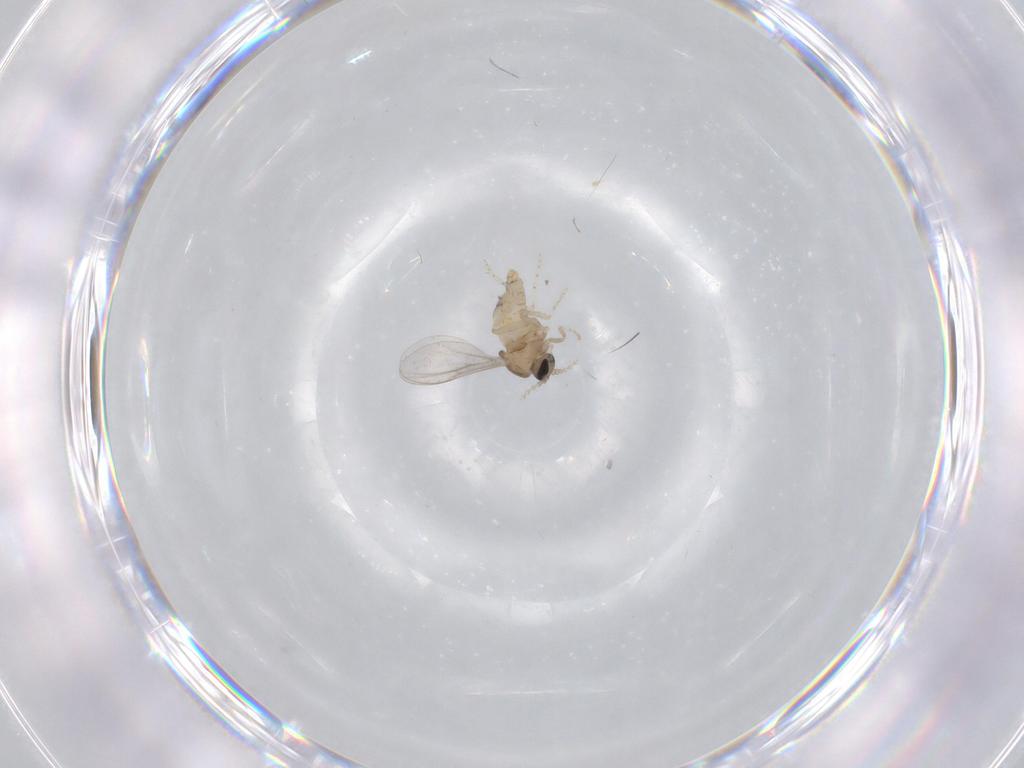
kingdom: Animalia
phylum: Arthropoda
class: Insecta
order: Diptera
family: Cecidomyiidae
